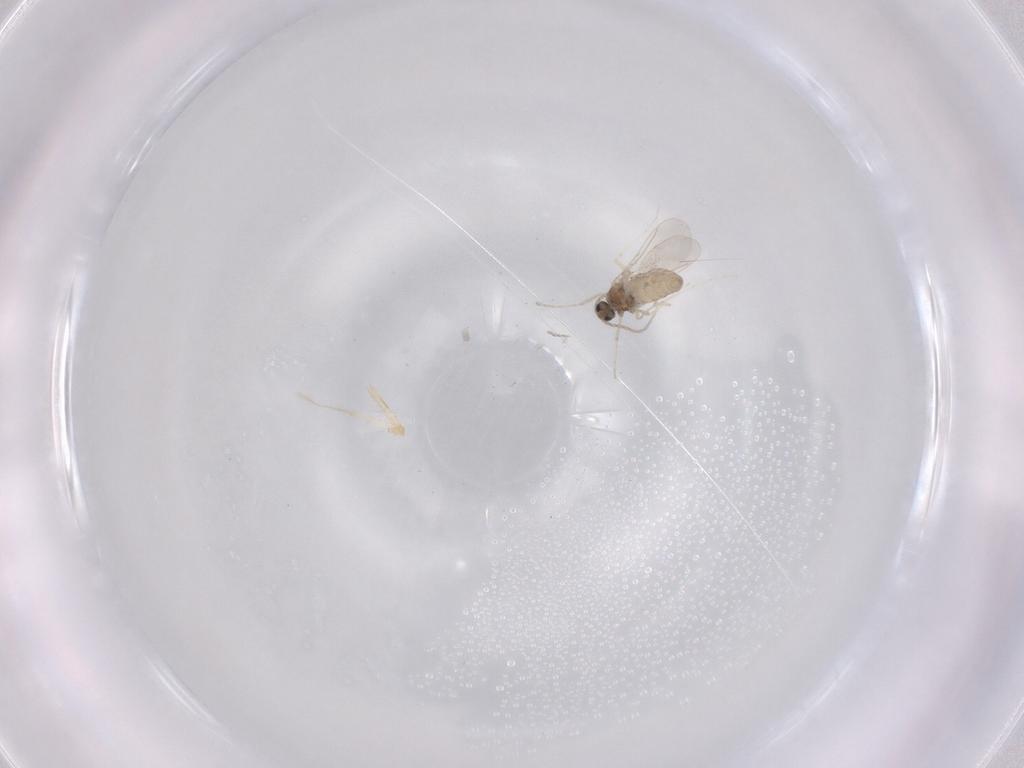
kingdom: Animalia
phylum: Arthropoda
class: Insecta
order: Diptera
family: Cecidomyiidae
